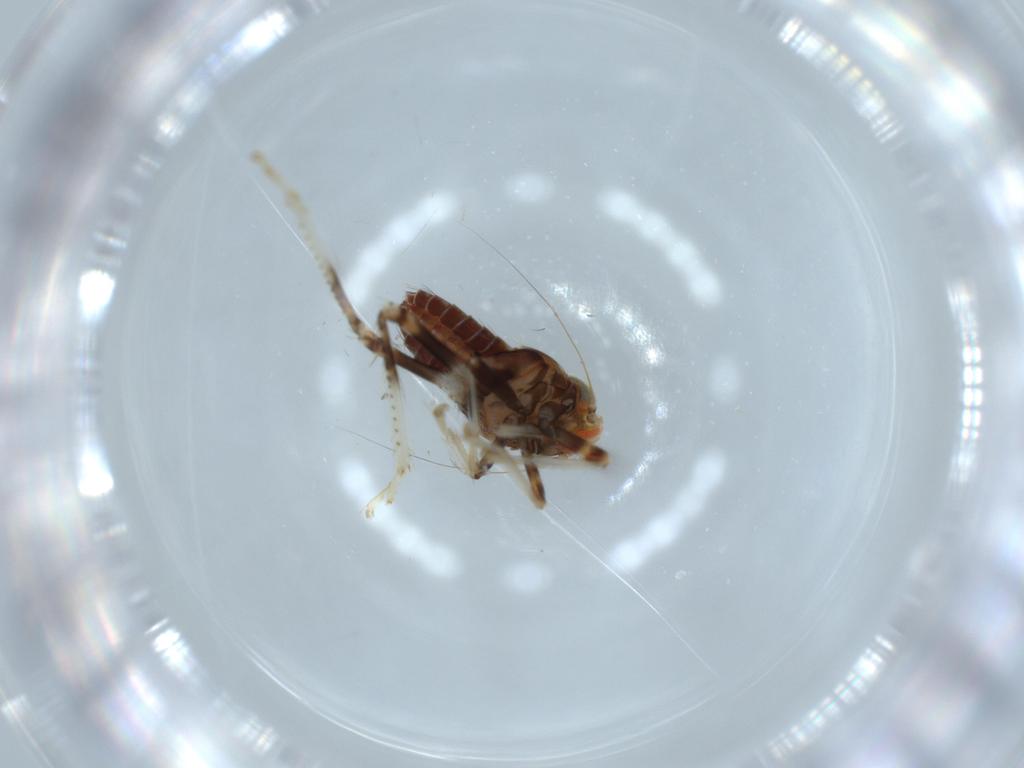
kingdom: Animalia
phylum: Arthropoda
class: Insecta
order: Hemiptera
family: Cicadellidae
